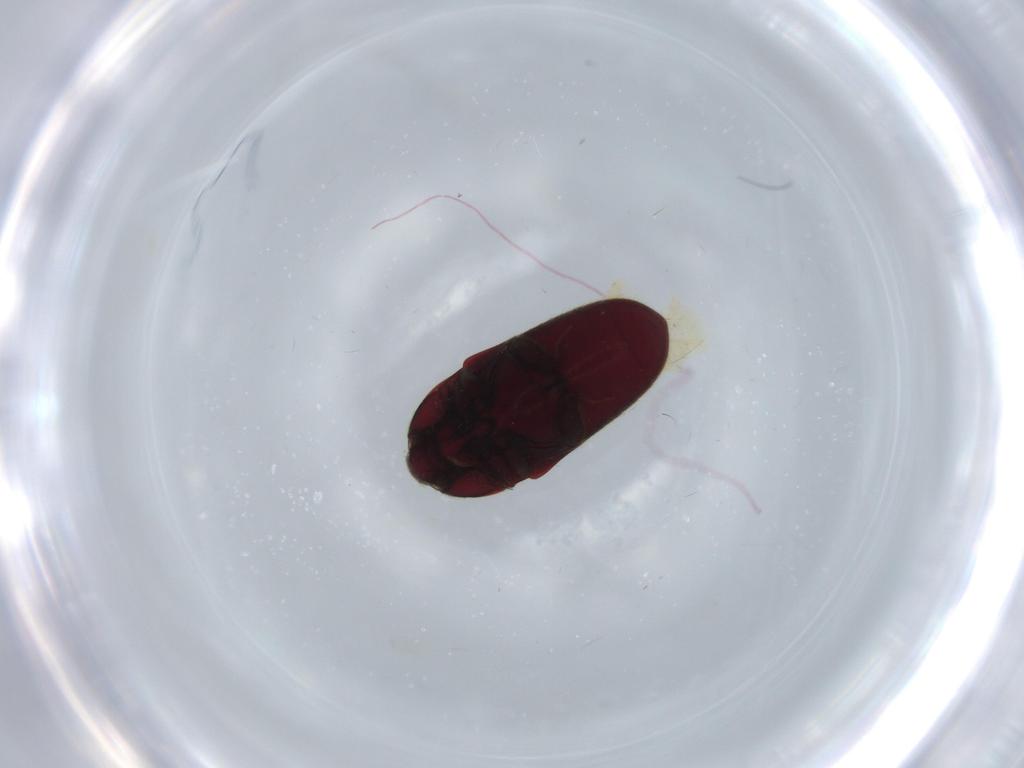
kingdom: Animalia
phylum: Arthropoda
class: Insecta
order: Coleoptera
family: Throscidae
